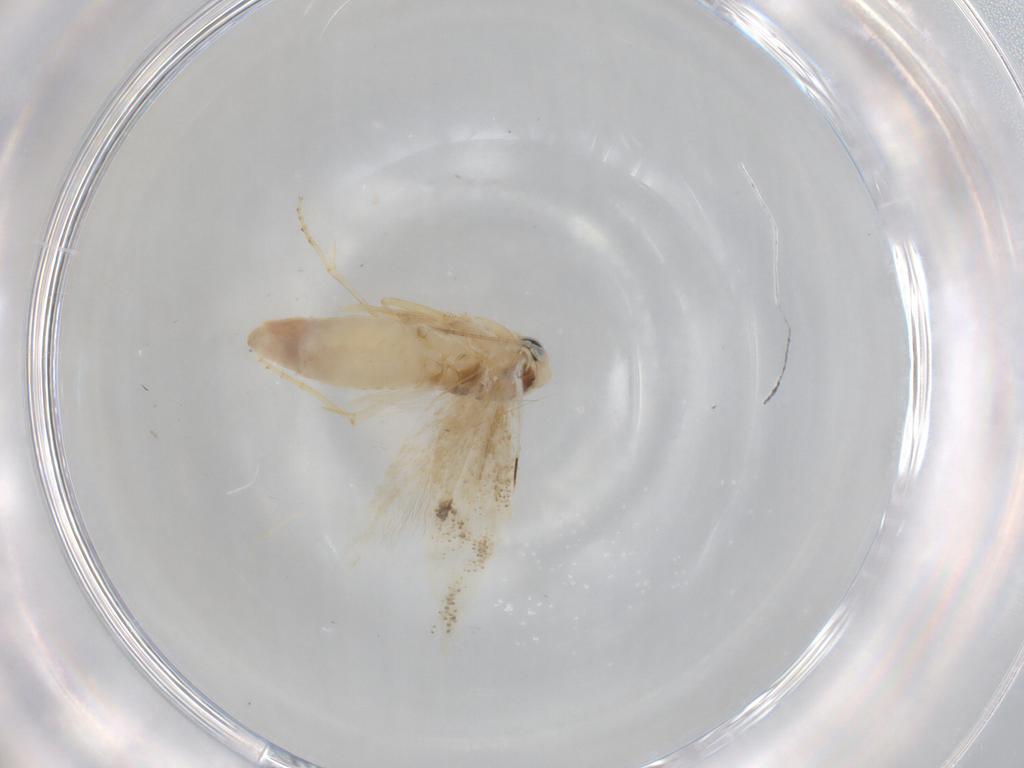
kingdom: Animalia
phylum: Arthropoda
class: Insecta
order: Lepidoptera
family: Bucculatricidae
